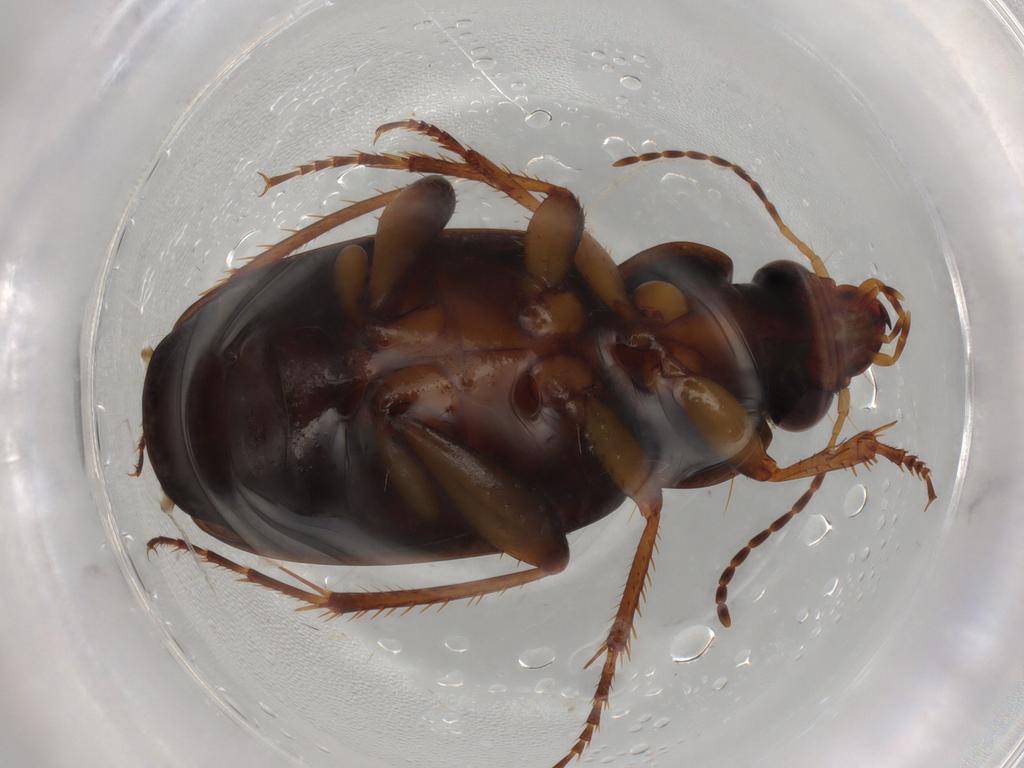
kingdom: Animalia
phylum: Arthropoda
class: Insecta
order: Coleoptera
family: Carabidae
